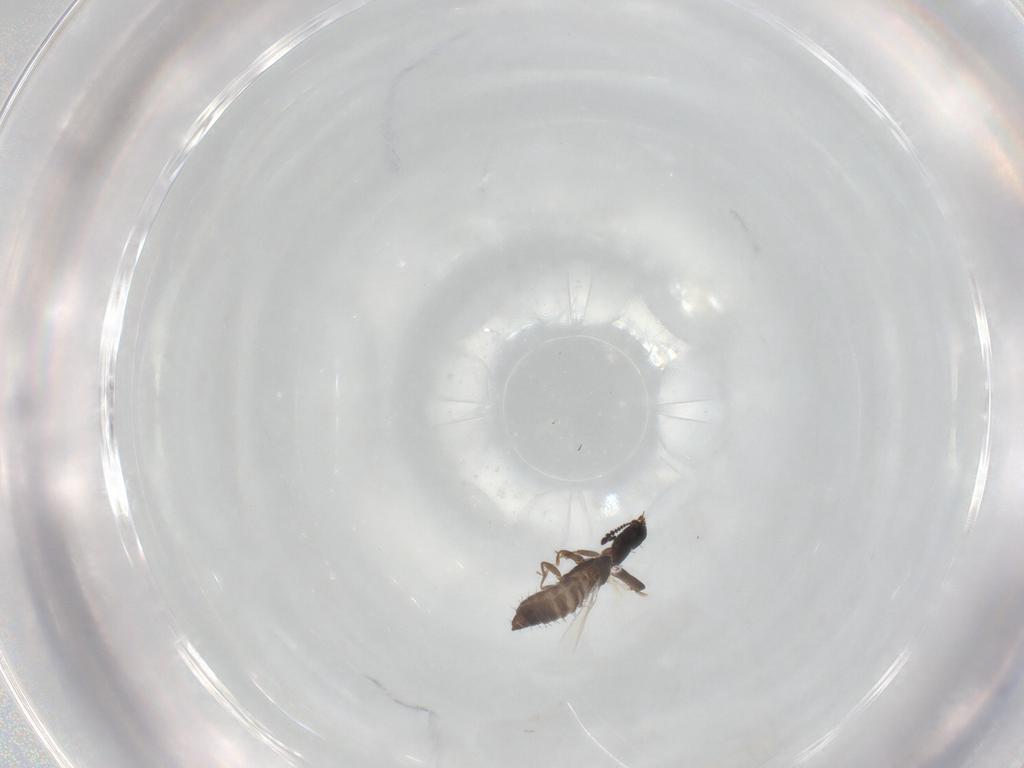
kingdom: Animalia
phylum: Arthropoda
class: Insecta
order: Coleoptera
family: Staphylinidae
